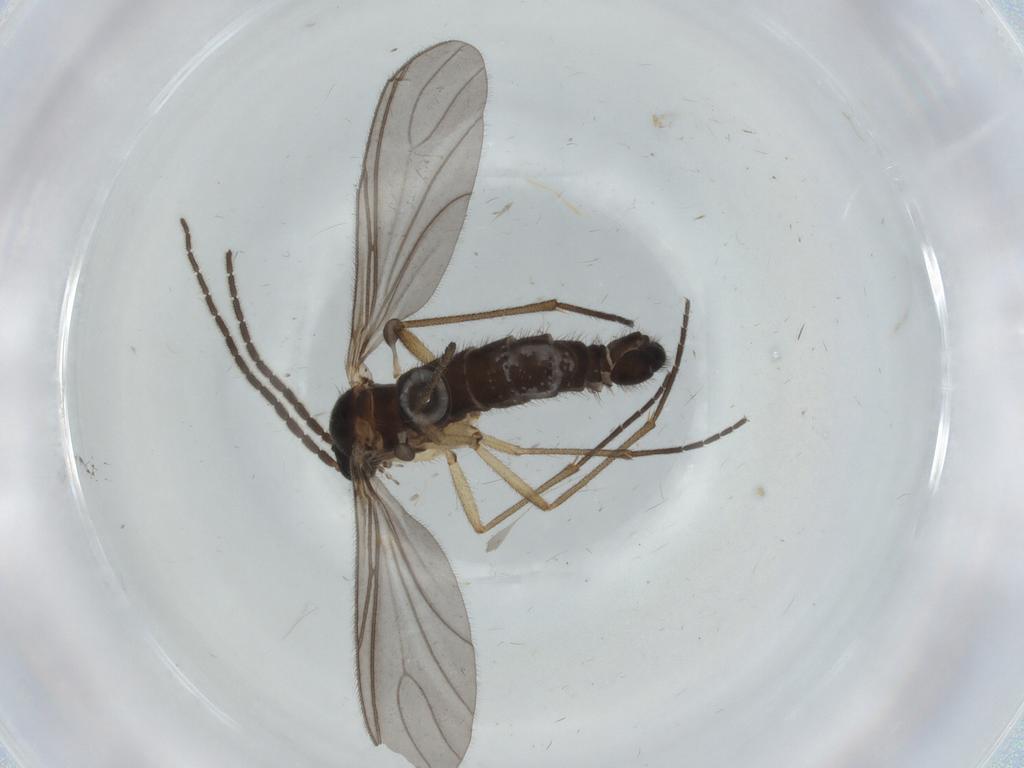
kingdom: Animalia
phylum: Arthropoda
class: Insecta
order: Diptera
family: Sciaridae
